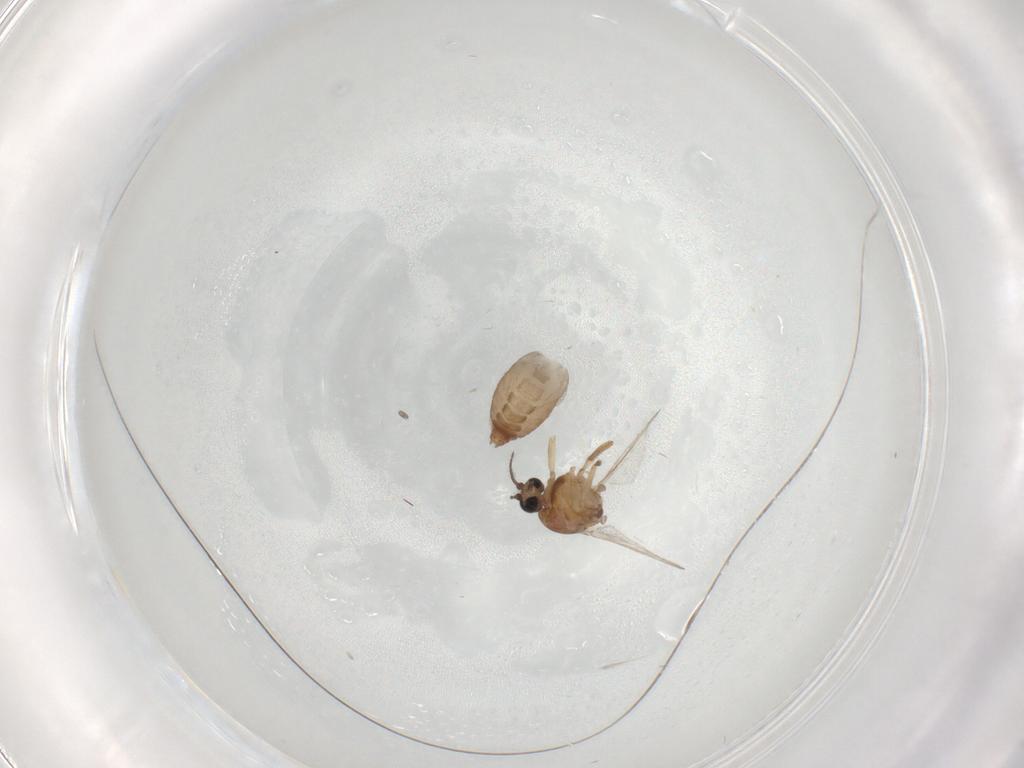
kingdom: Animalia
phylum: Arthropoda
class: Insecta
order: Diptera
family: Ceratopogonidae
